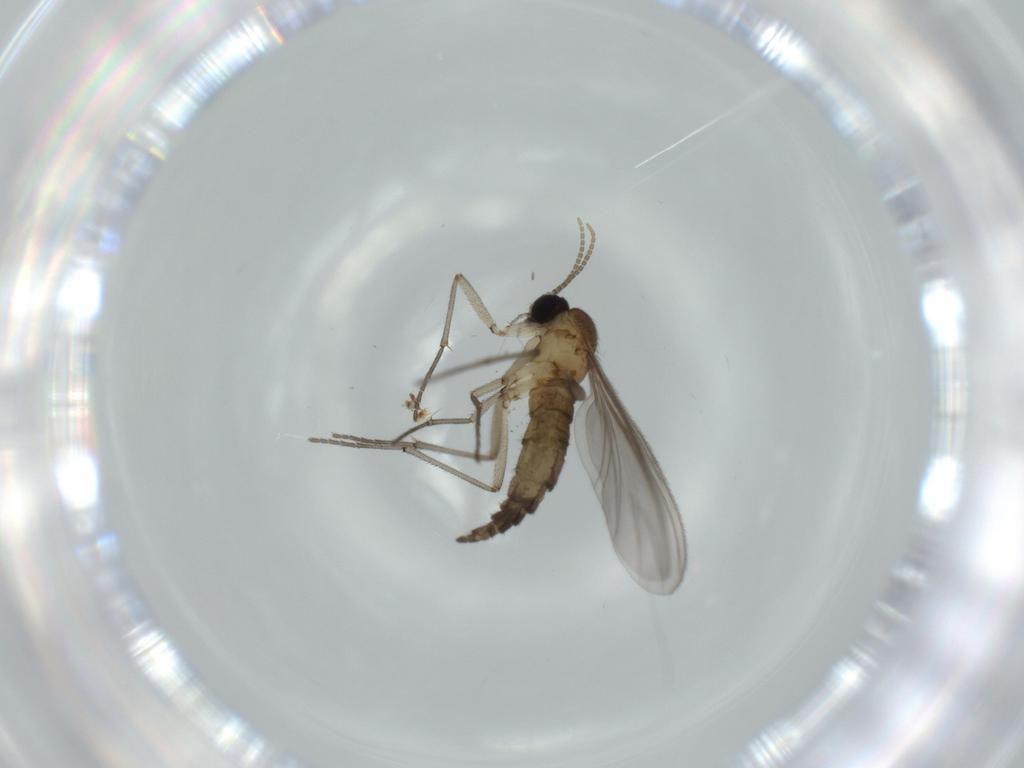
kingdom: Animalia
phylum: Arthropoda
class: Insecta
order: Diptera
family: Sciaridae
